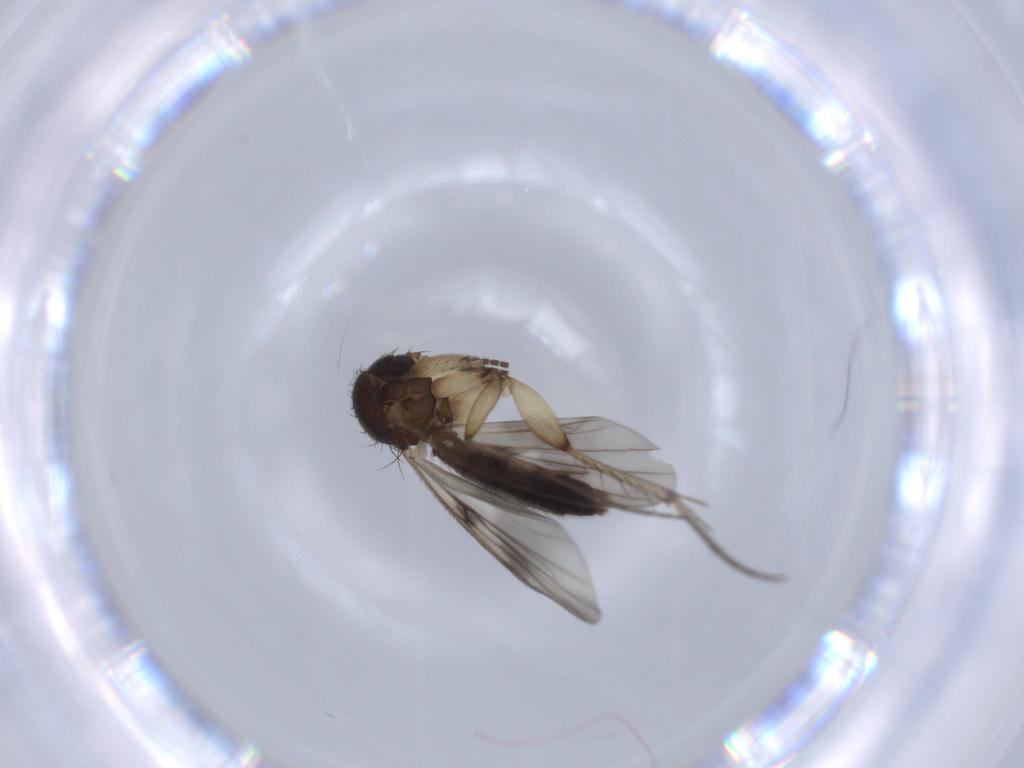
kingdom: Animalia
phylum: Arthropoda
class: Insecta
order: Diptera
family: Mycetophilidae
